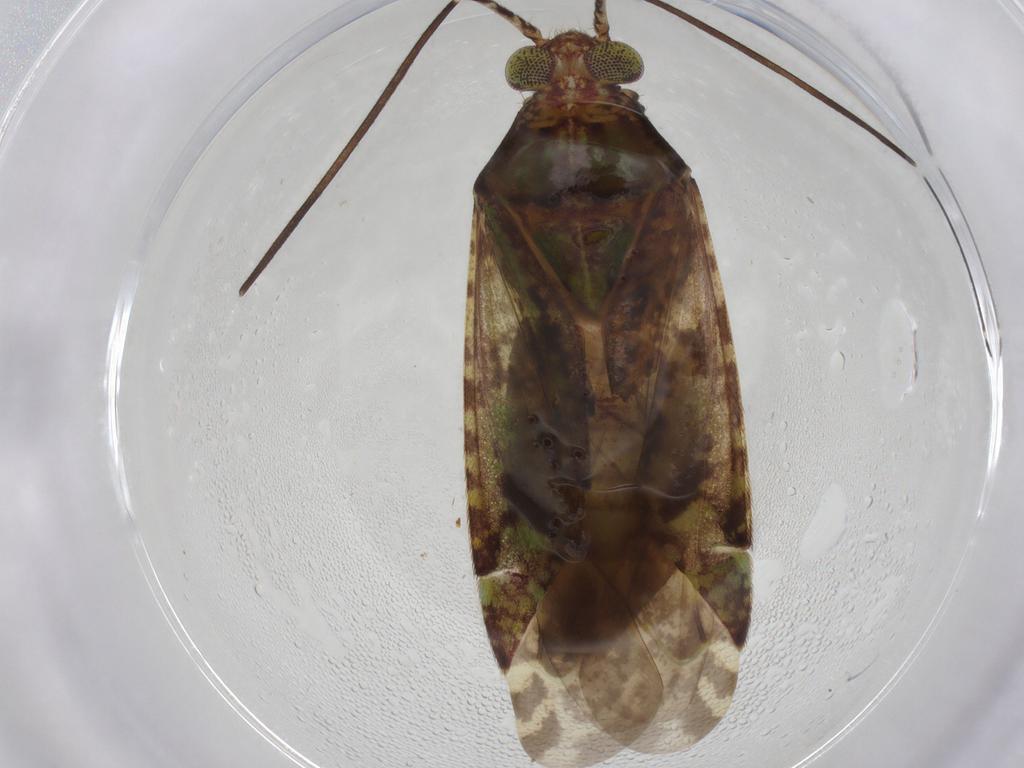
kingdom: Animalia
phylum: Arthropoda
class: Insecta
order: Hemiptera
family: Miridae
